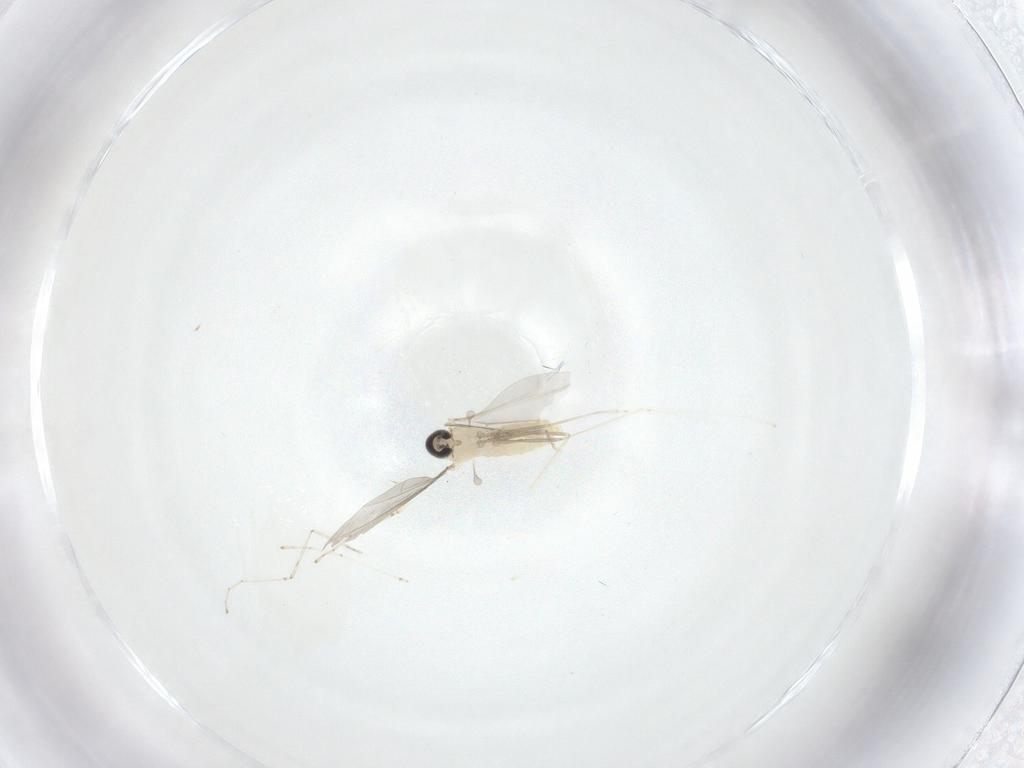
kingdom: Animalia
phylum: Arthropoda
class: Insecta
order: Diptera
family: Cecidomyiidae
